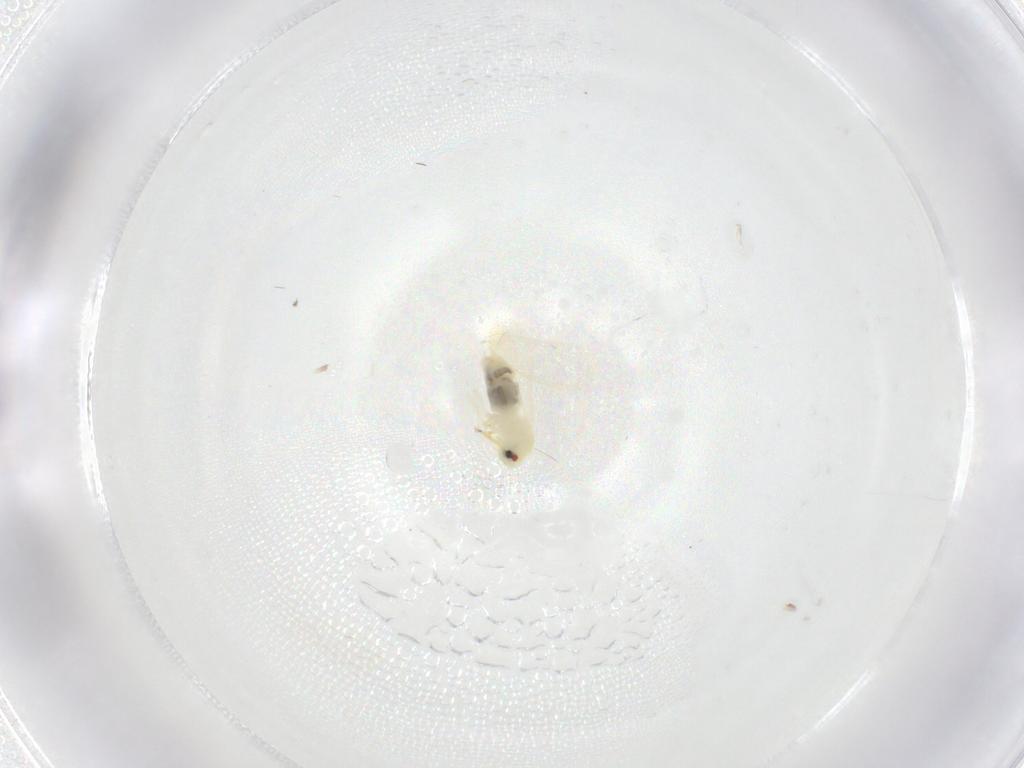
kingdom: Animalia
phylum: Arthropoda
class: Insecta
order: Hemiptera
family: Aleyrodidae
